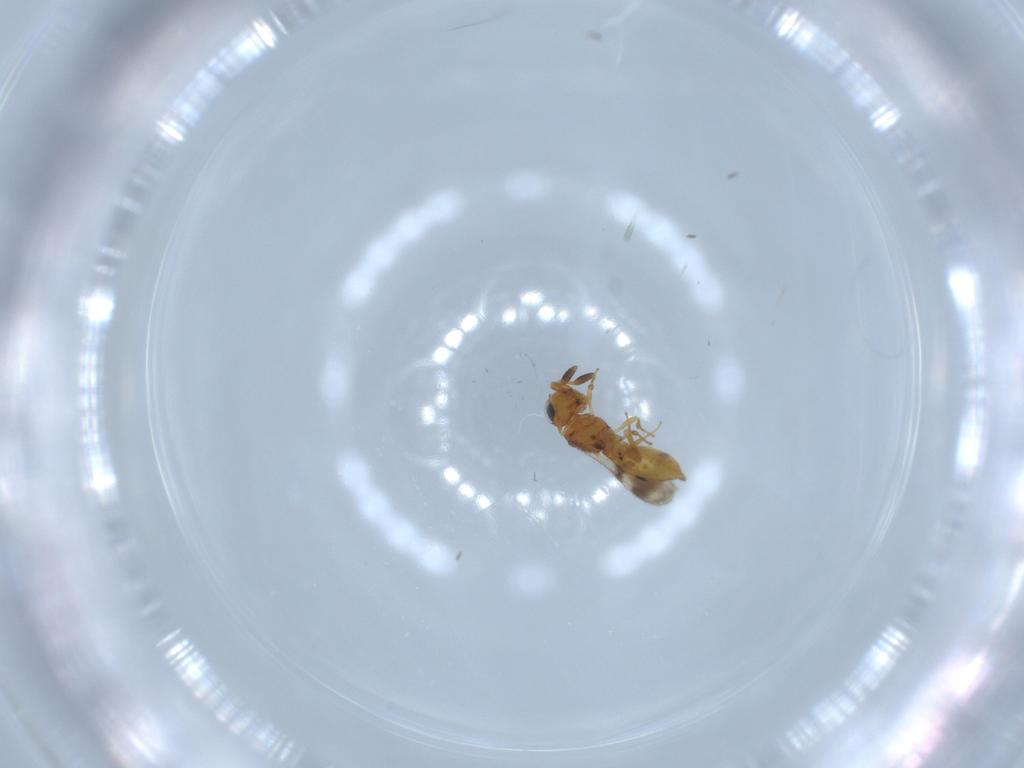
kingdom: Animalia
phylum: Arthropoda
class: Insecta
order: Hymenoptera
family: Scelionidae
